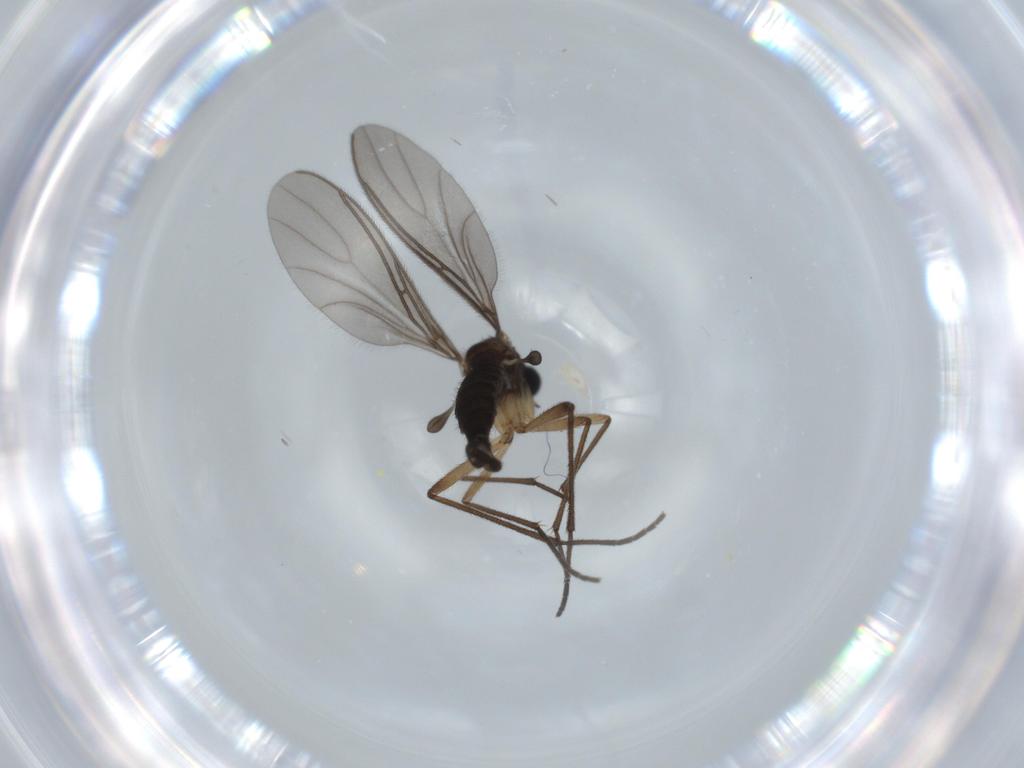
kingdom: Animalia
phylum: Arthropoda
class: Insecta
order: Diptera
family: Sciaridae
